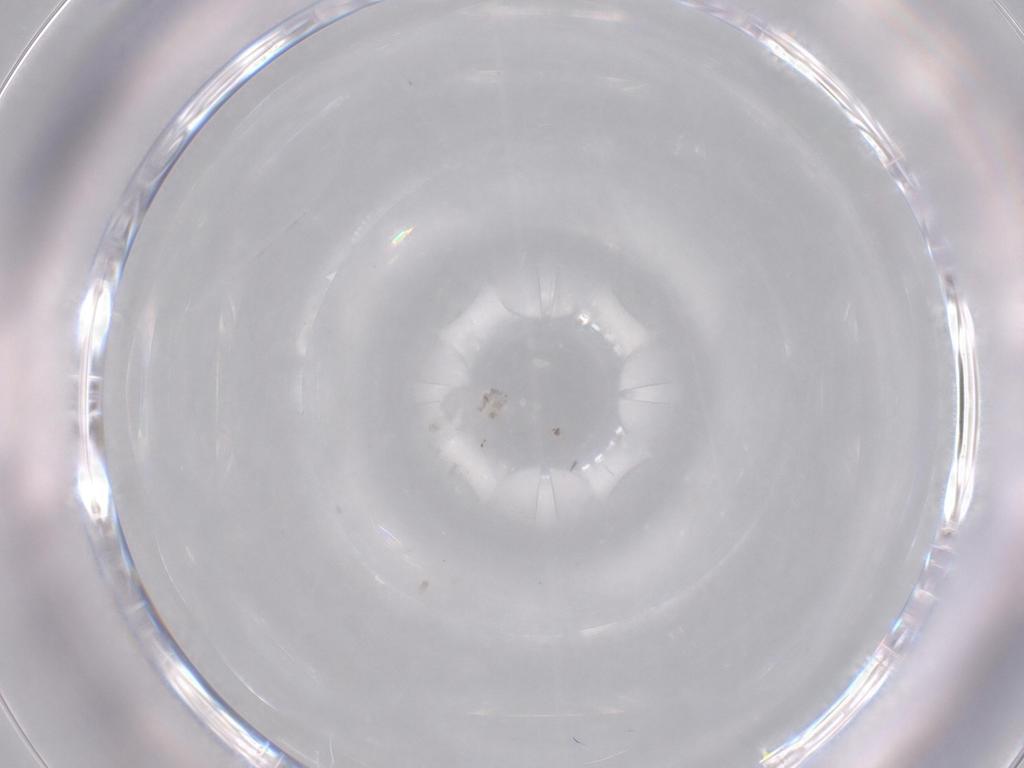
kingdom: Animalia
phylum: Arthropoda
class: Insecta
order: Diptera
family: Chironomidae
